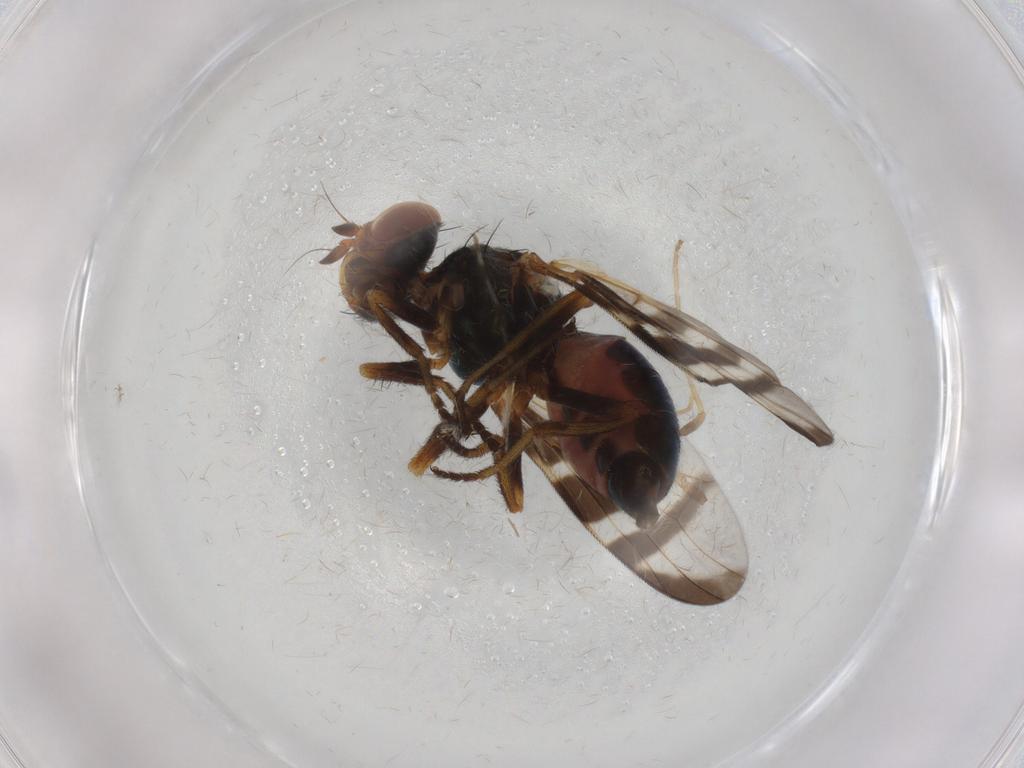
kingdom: Animalia
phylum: Arthropoda
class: Insecta
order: Diptera
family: Platystomatidae
